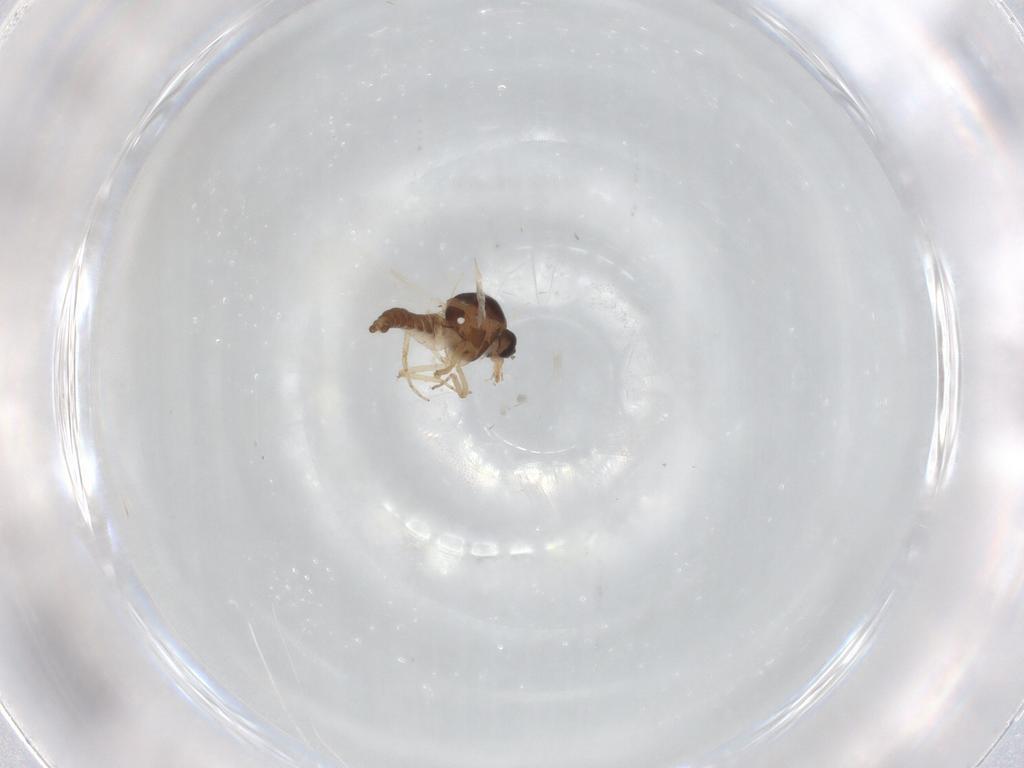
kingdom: Animalia
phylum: Arthropoda
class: Insecta
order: Diptera
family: Ceratopogonidae
